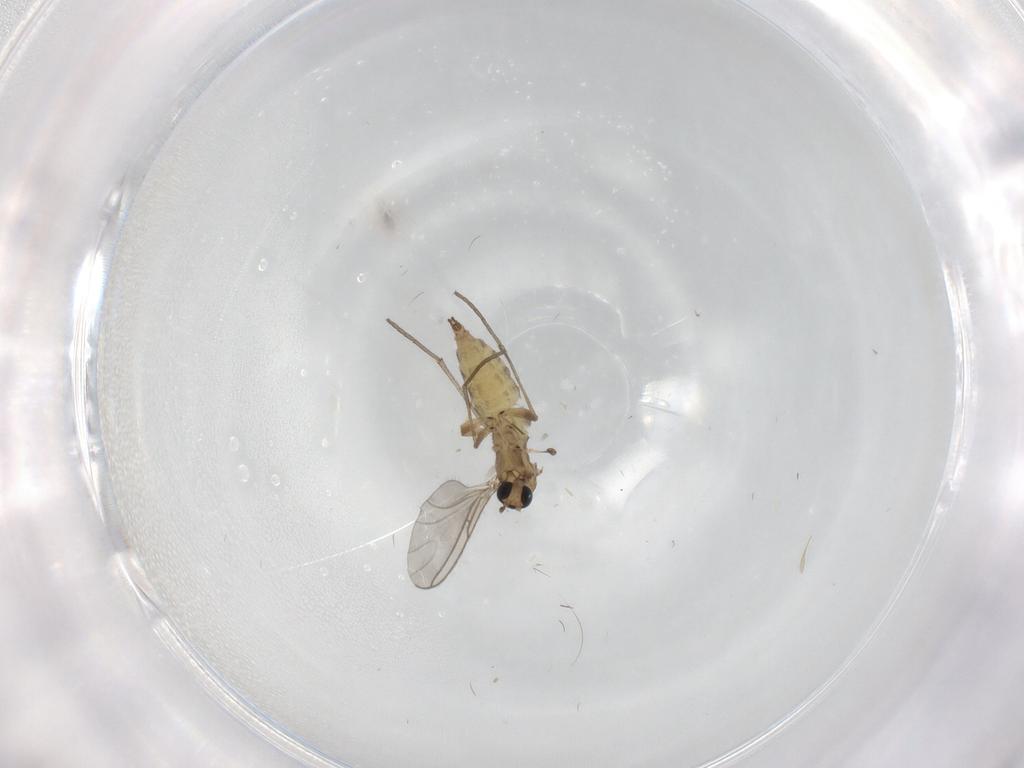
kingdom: Animalia
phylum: Arthropoda
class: Insecta
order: Diptera
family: Sciaridae
